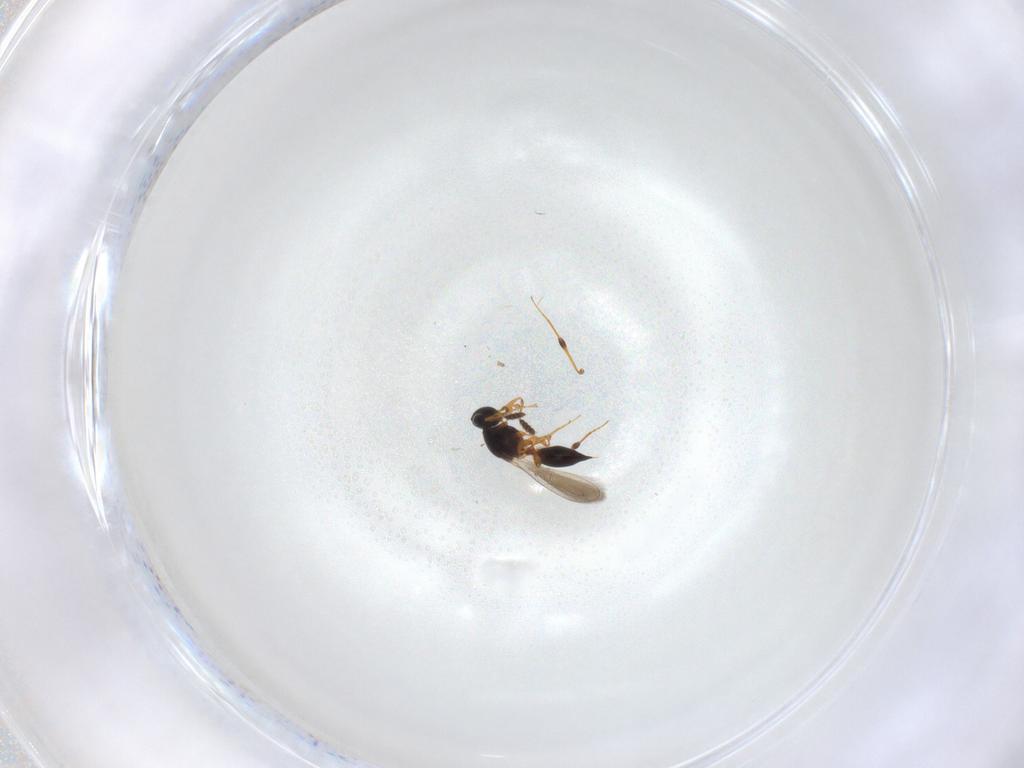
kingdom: Animalia
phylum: Arthropoda
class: Insecta
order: Hymenoptera
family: Platygastridae
